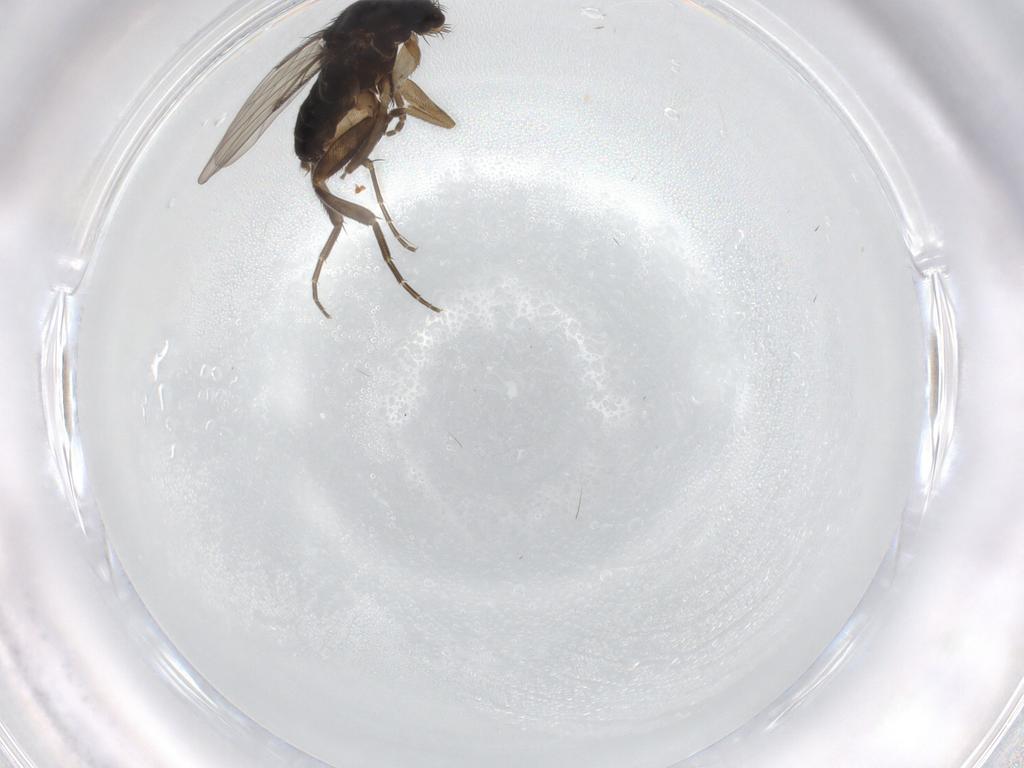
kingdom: Animalia
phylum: Arthropoda
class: Insecta
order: Diptera
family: Phoridae
